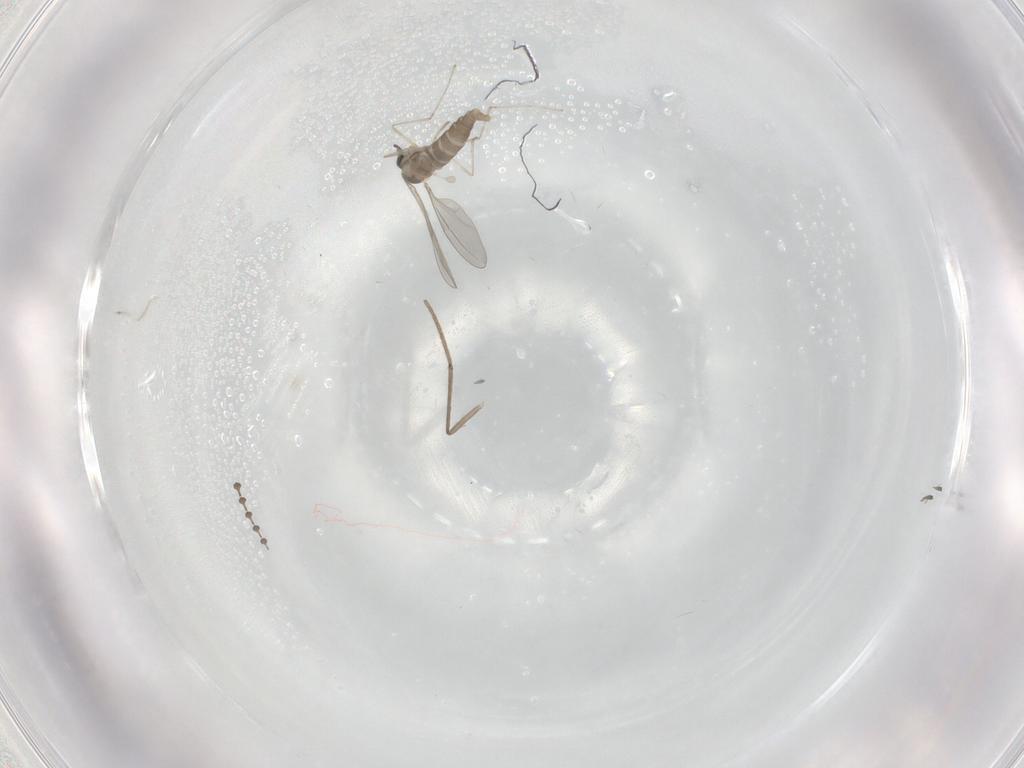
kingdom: Animalia
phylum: Arthropoda
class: Insecta
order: Diptera
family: Psychodidae
